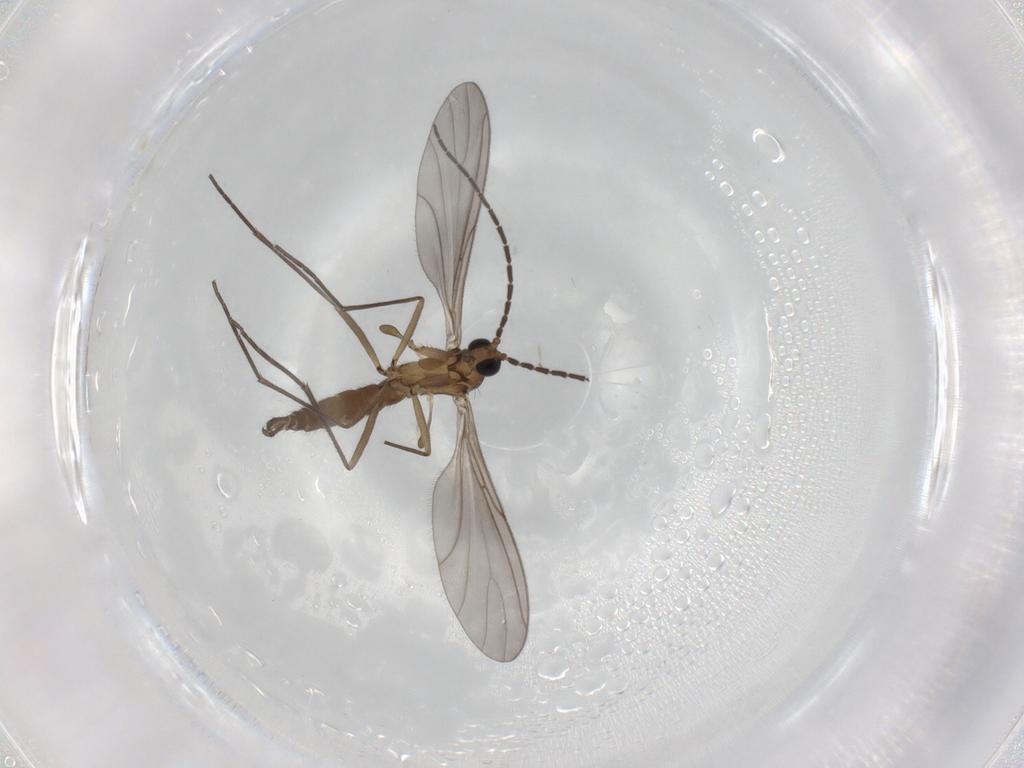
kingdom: Animalia
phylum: Arthropoda
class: Insecta
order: Diptera
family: Sciaridae
